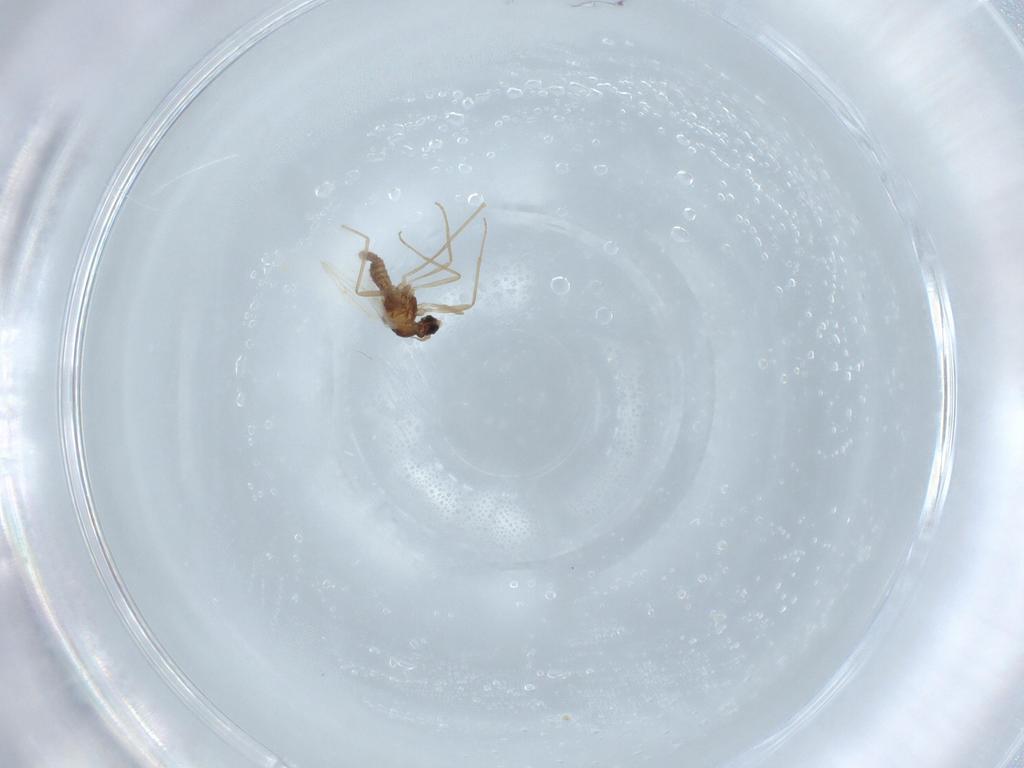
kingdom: Animalia
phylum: Arthropoda
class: Insecta
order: Diptera
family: Cecidomyiidae
